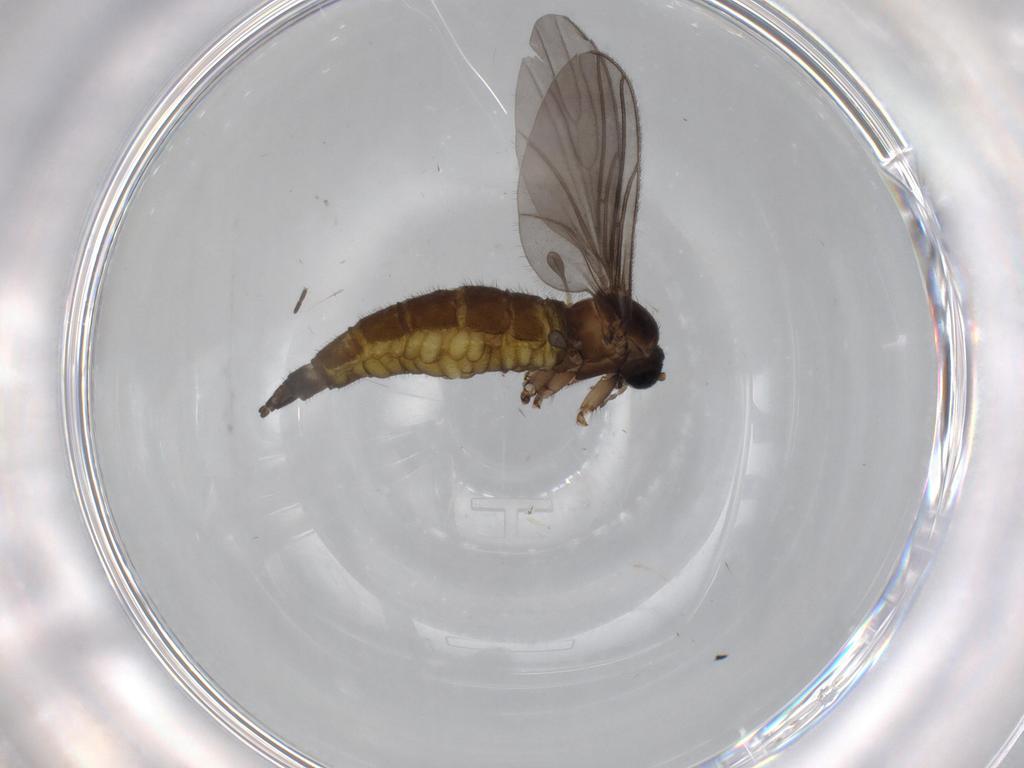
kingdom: Animalia
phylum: Arthropoda
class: Insecta
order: Diptera
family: Sciaridae
